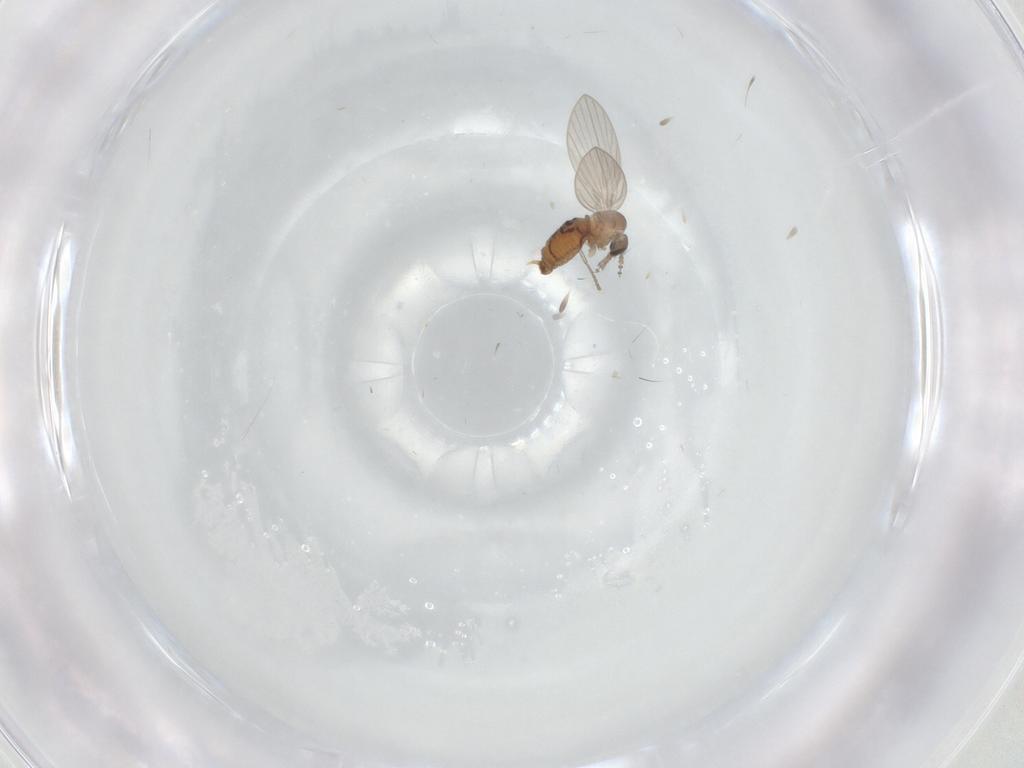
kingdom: Animalia
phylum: Arthropoda
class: Insecta
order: Diptera
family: Psychodidae
